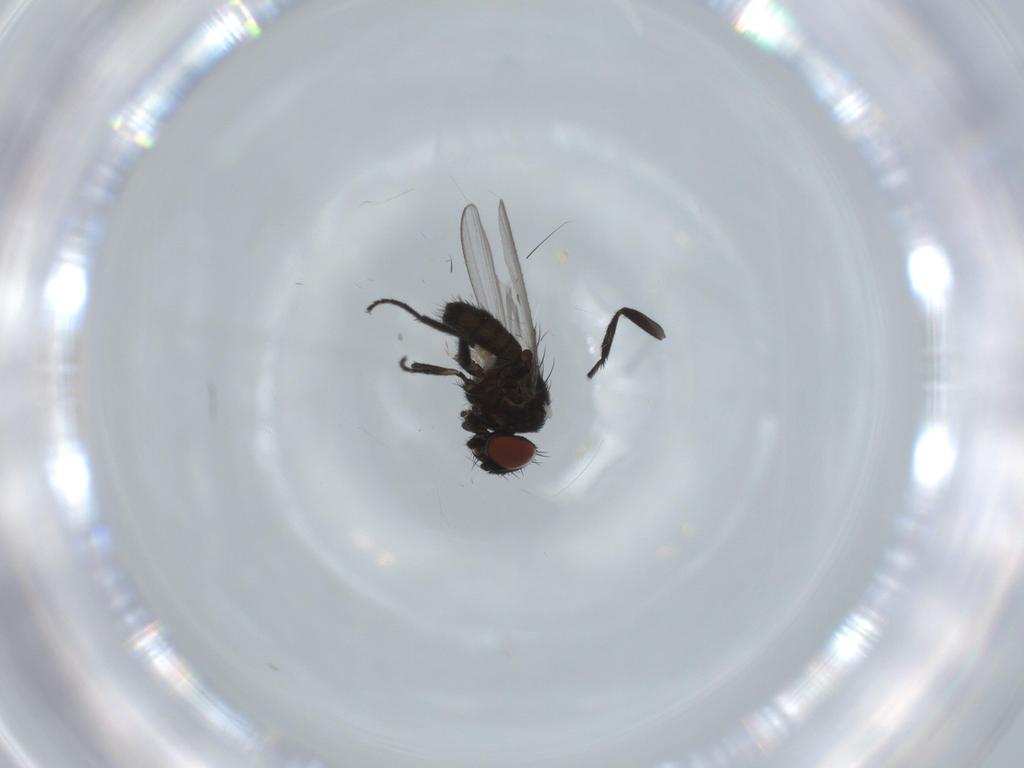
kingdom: Animalia
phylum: Arthropoda
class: Insecta
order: Diptera
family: Milichiidae
